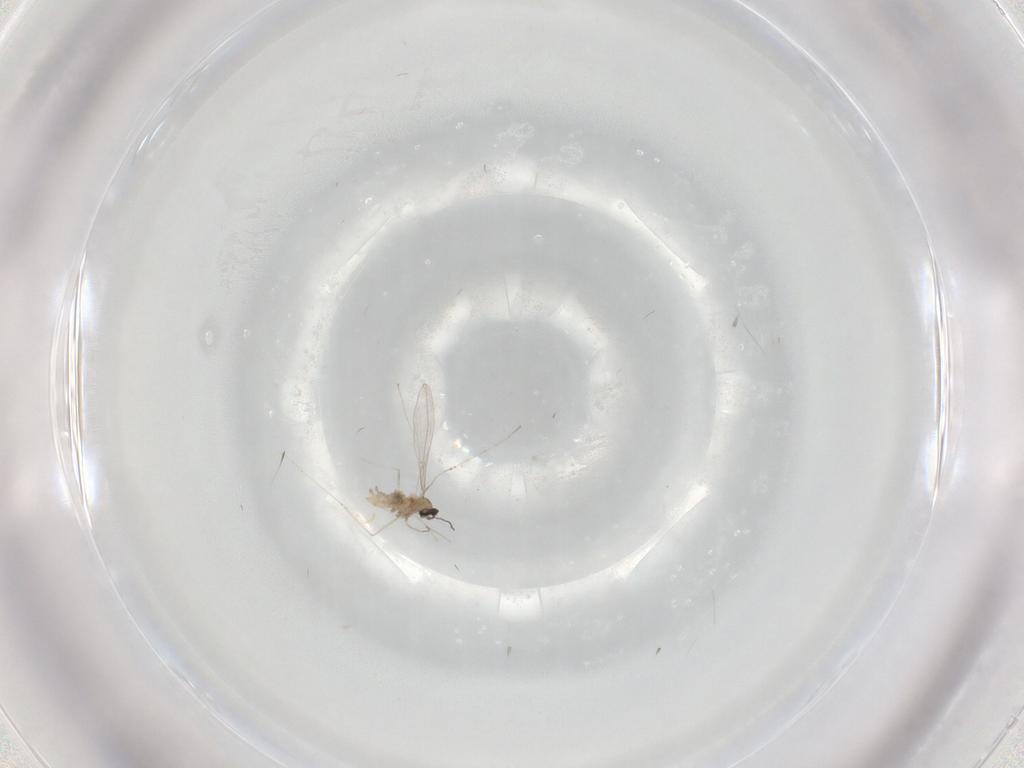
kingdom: Animalia
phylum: Arthropoda
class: Insecta
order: Diptera
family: Cecidomyiidae
